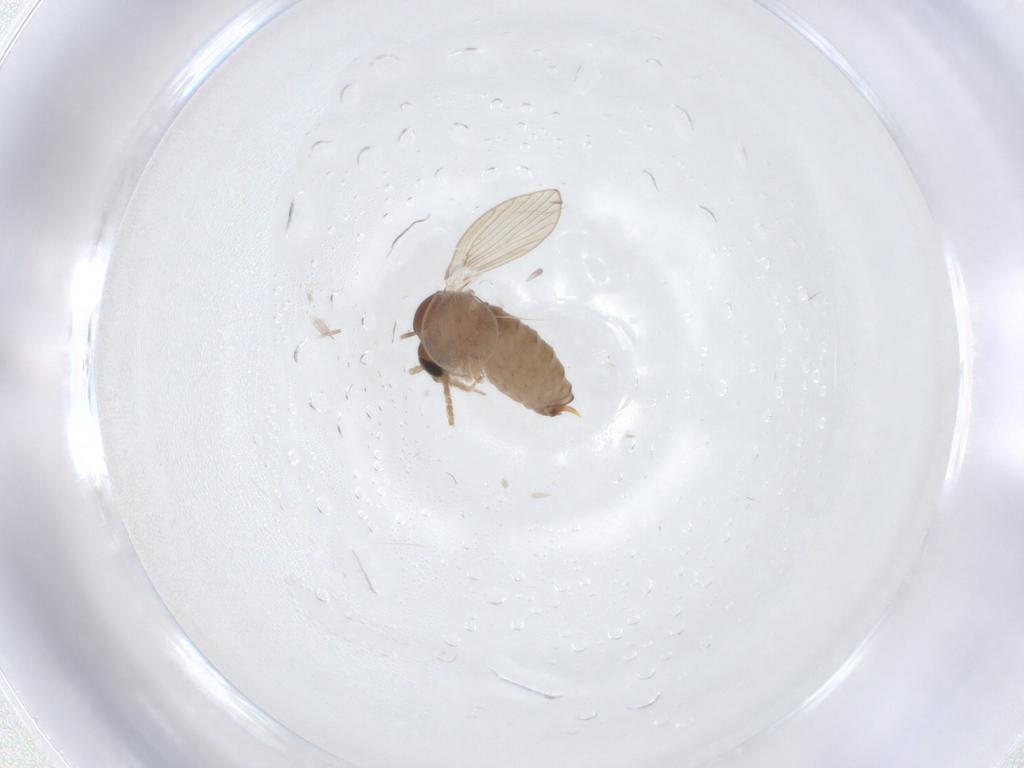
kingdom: Animalia
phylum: Arthropoda
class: Insecta
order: Diptera
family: Psychodidae
